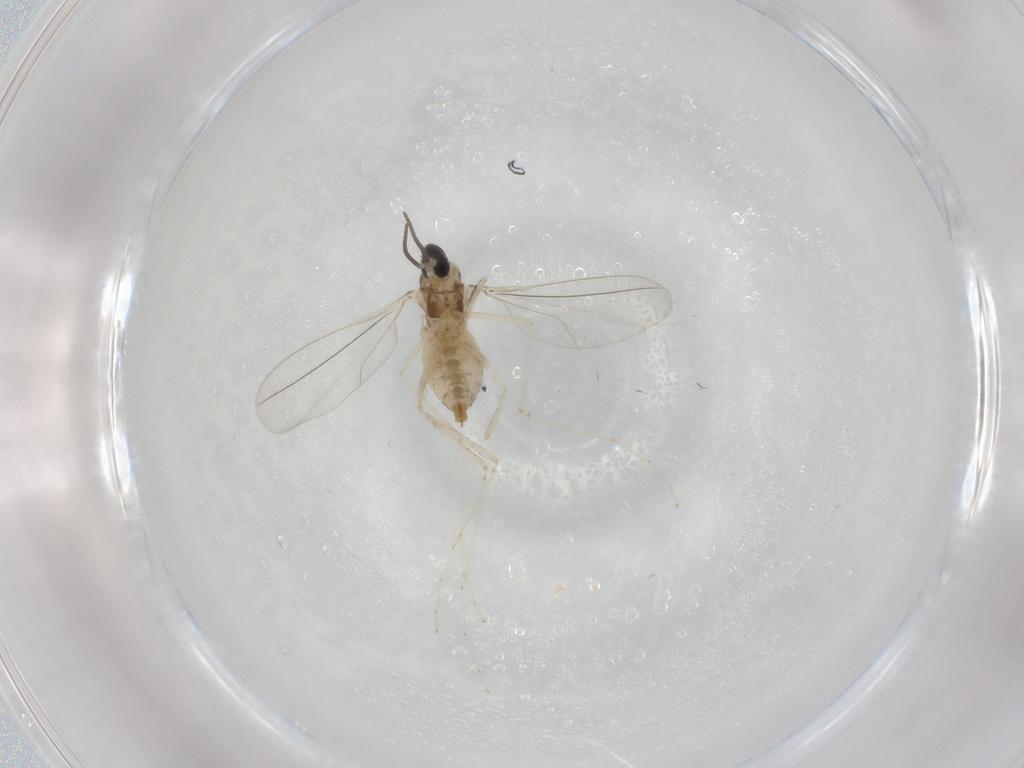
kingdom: Animalia
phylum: Arthropoda
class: Insecta
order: Diptera
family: Cecidomyiidae
